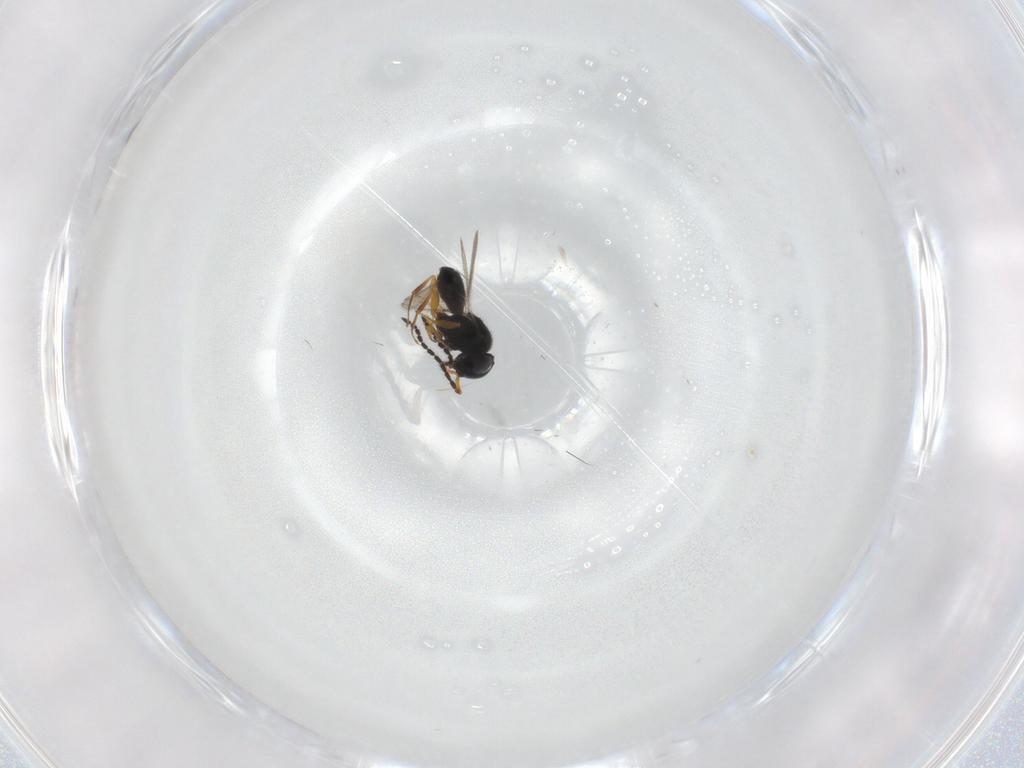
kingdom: Animalia
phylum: Arthropoda
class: Insecta
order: Hymenoptera
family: Scelionidae
